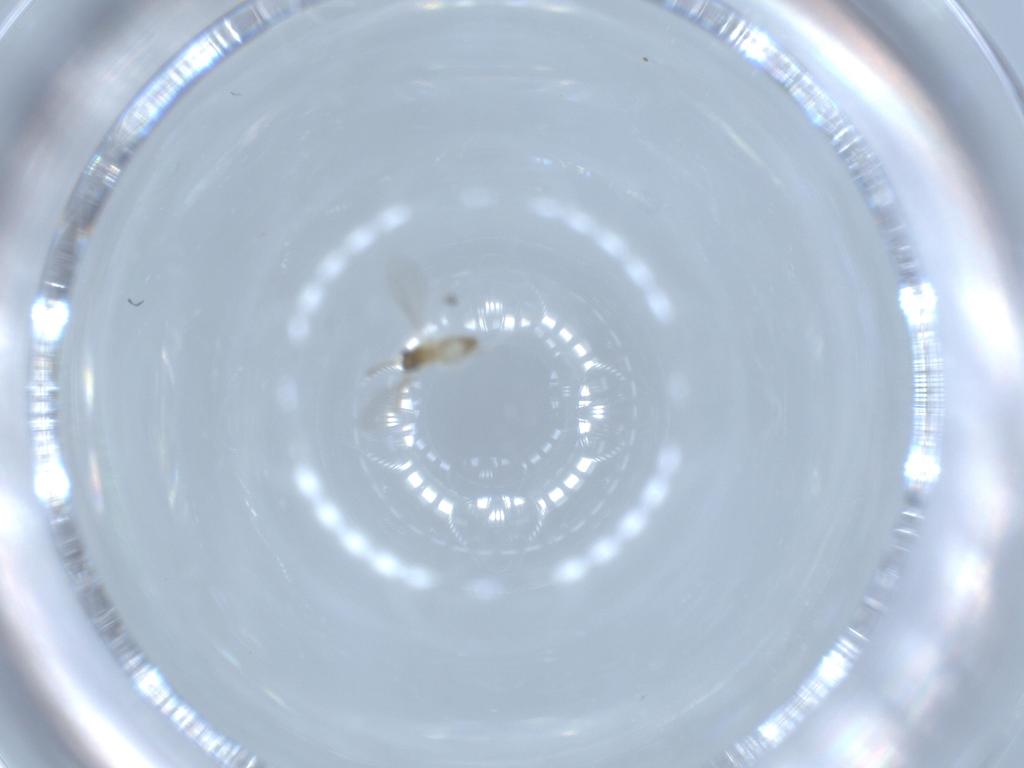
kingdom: Animalia
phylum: Arthropoda
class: Insecta
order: Diptera
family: Cecidomyiidae
